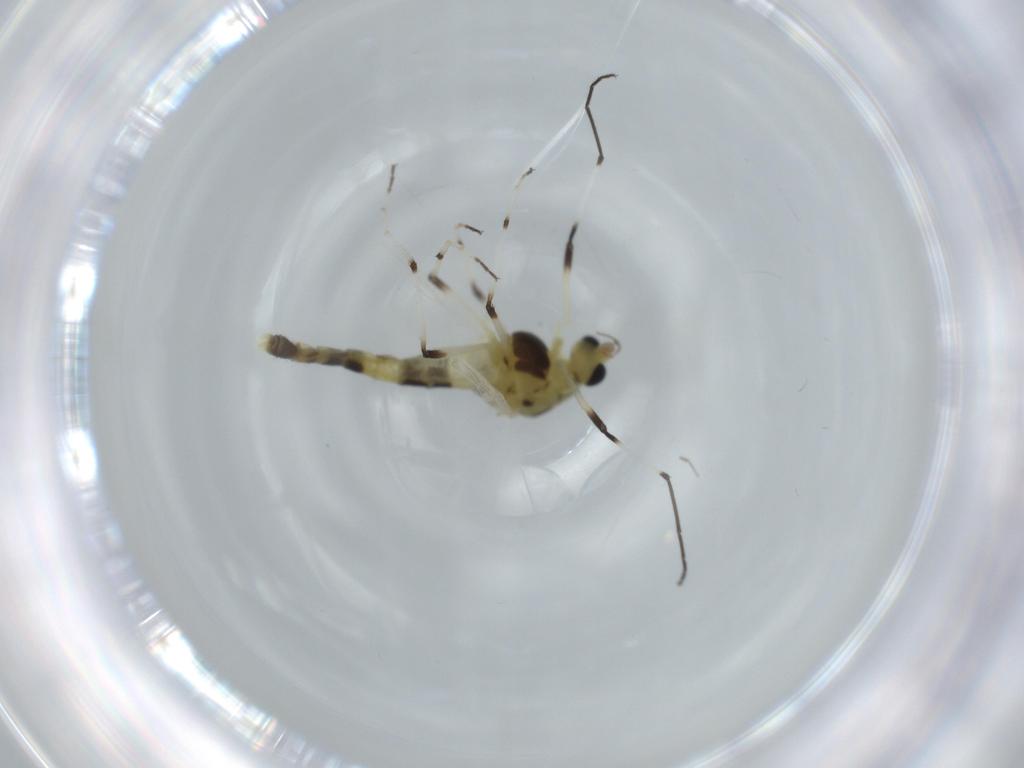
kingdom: Animalia
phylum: Arthropoda
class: Insecta
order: Diptera
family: Chironomidae
